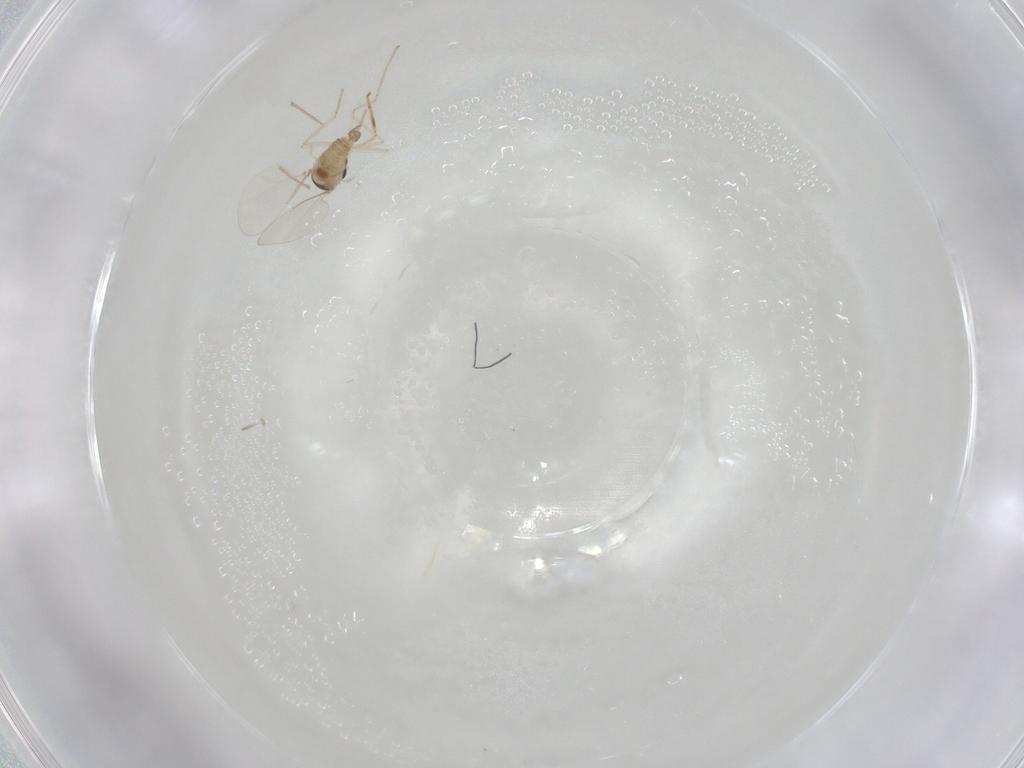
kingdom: Animalia
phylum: Arthropoda
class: Insecta
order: Diptera
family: Cecidomyiidae
